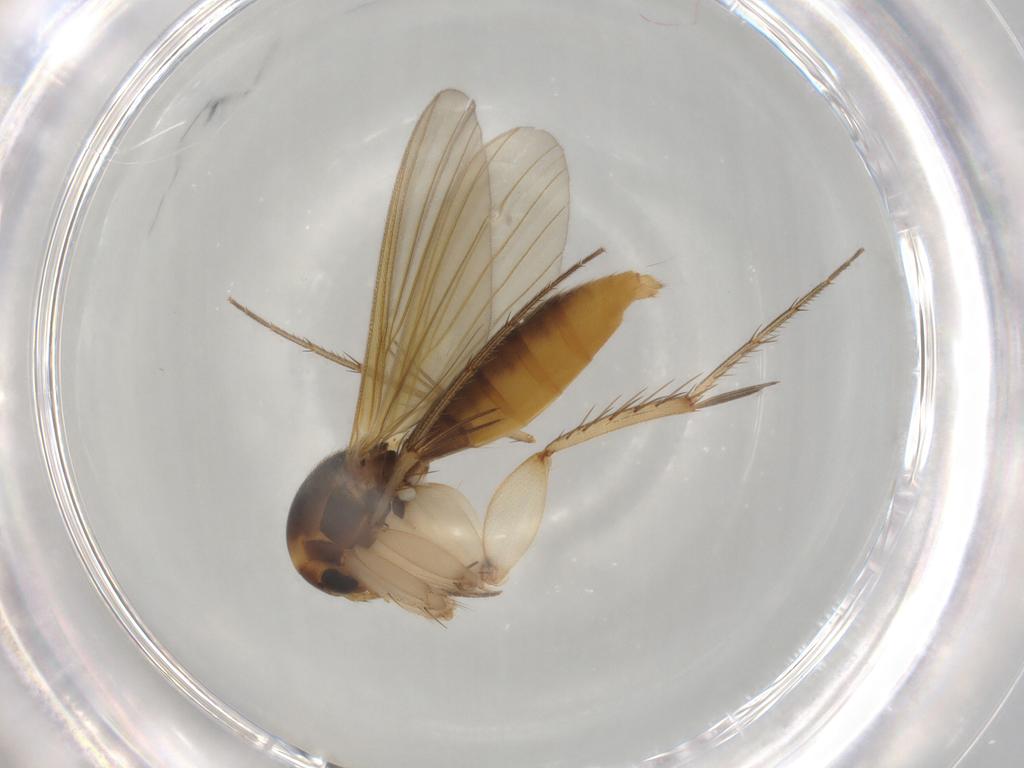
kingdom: Animalia
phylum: Arthropoda
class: Insecta
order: Diptera
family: Mycetophilidae
